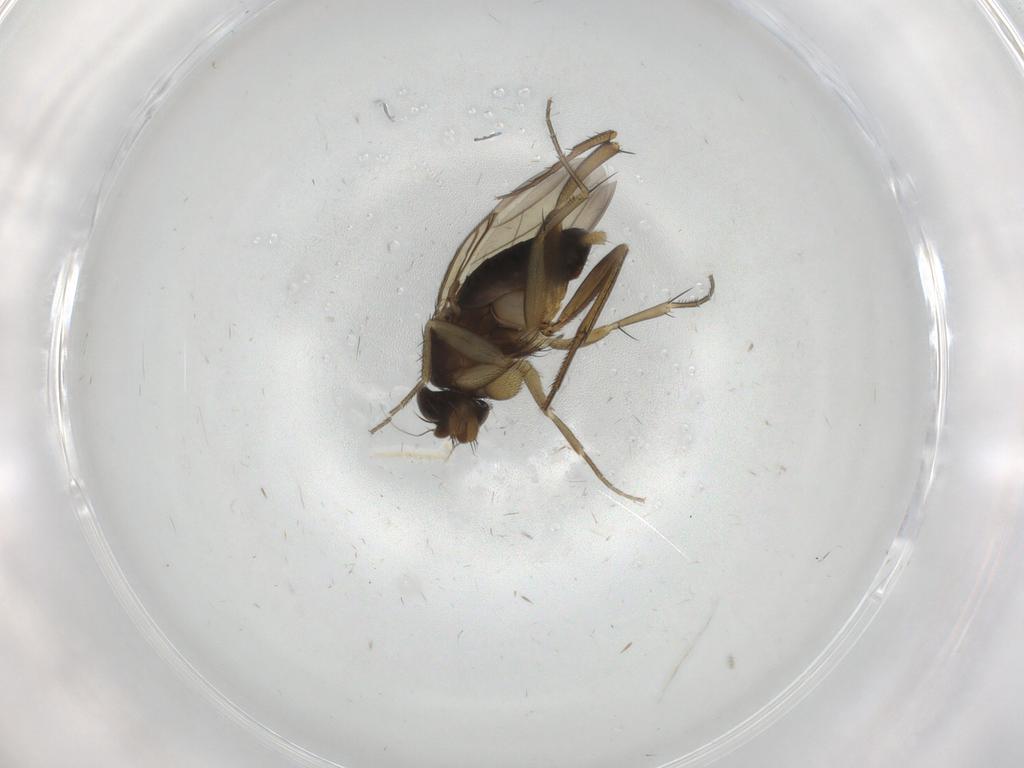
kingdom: Animalia
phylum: Arthropoda
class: Insecta
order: Diptera
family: Phoridae
